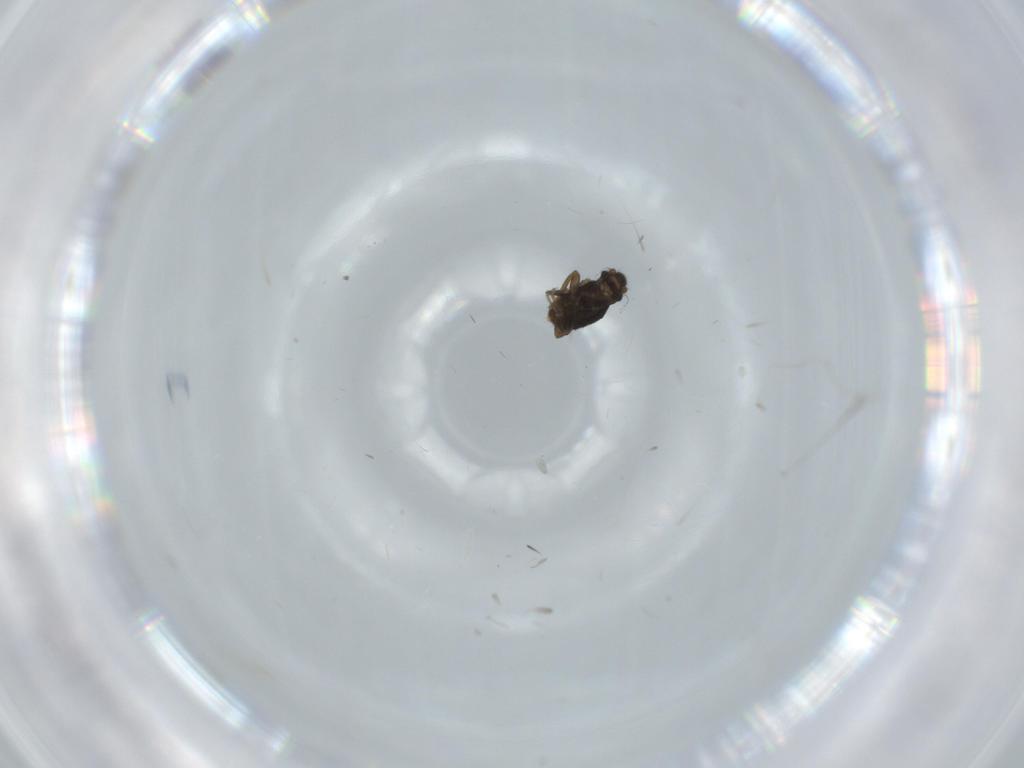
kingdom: Animalia
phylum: Arthropoda
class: Insecta
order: Diptera
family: Phoridae
